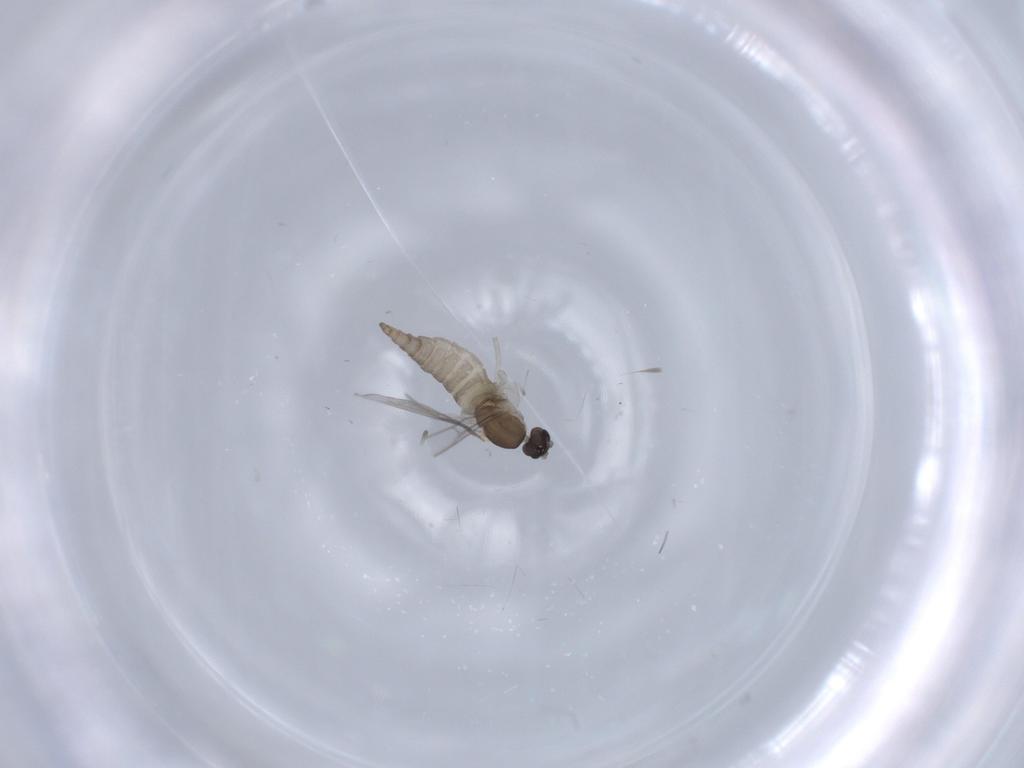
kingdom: Animalia
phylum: Arthropoda
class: Insecta
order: Diptera
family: Cecidomyiidae
